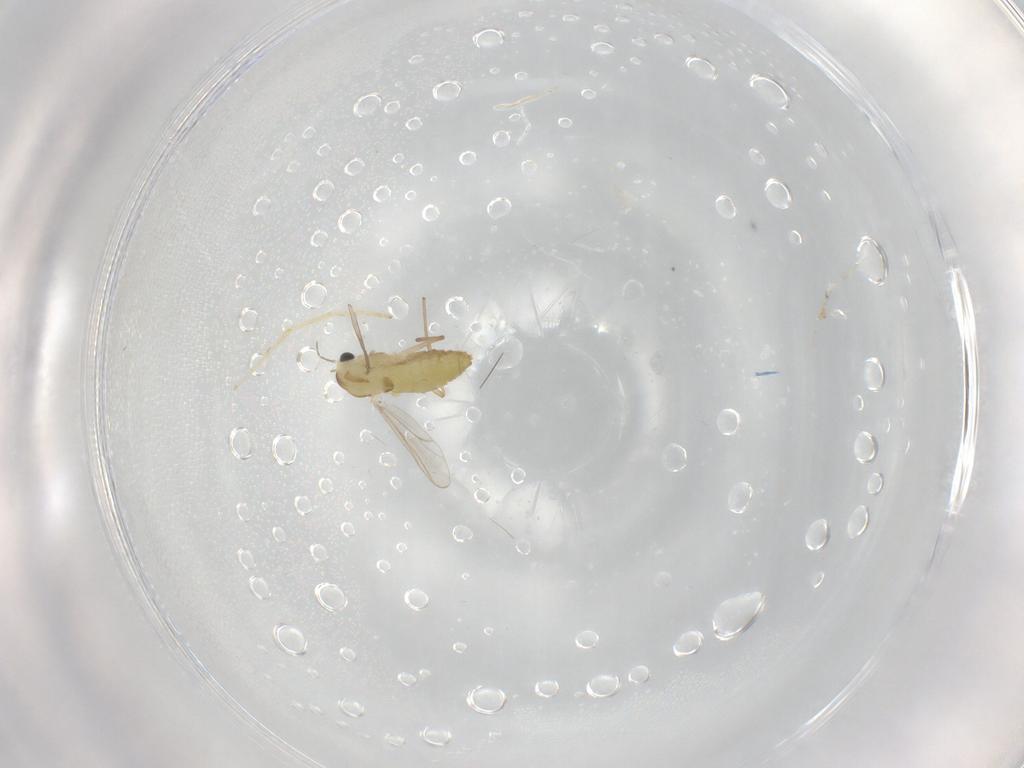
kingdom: Animalia
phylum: Arthropoda
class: Insecta
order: Diptera
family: Chironomidae
